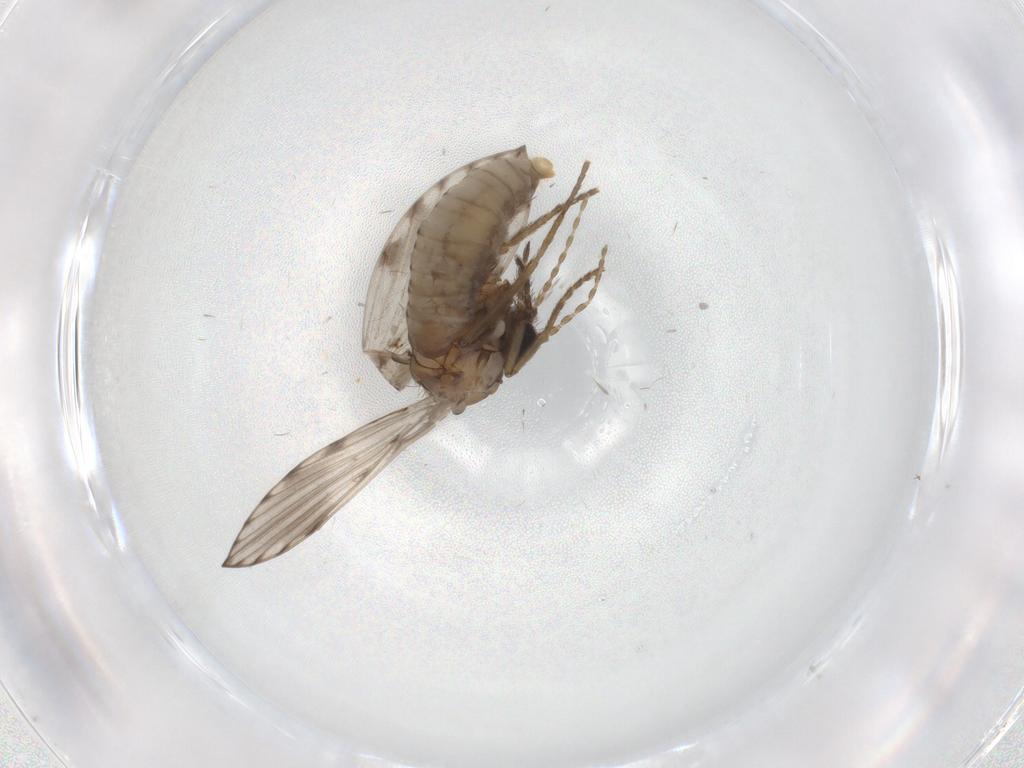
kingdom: Animalia
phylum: Arthropoda
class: Insecta
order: Diptera
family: Psychodidae
